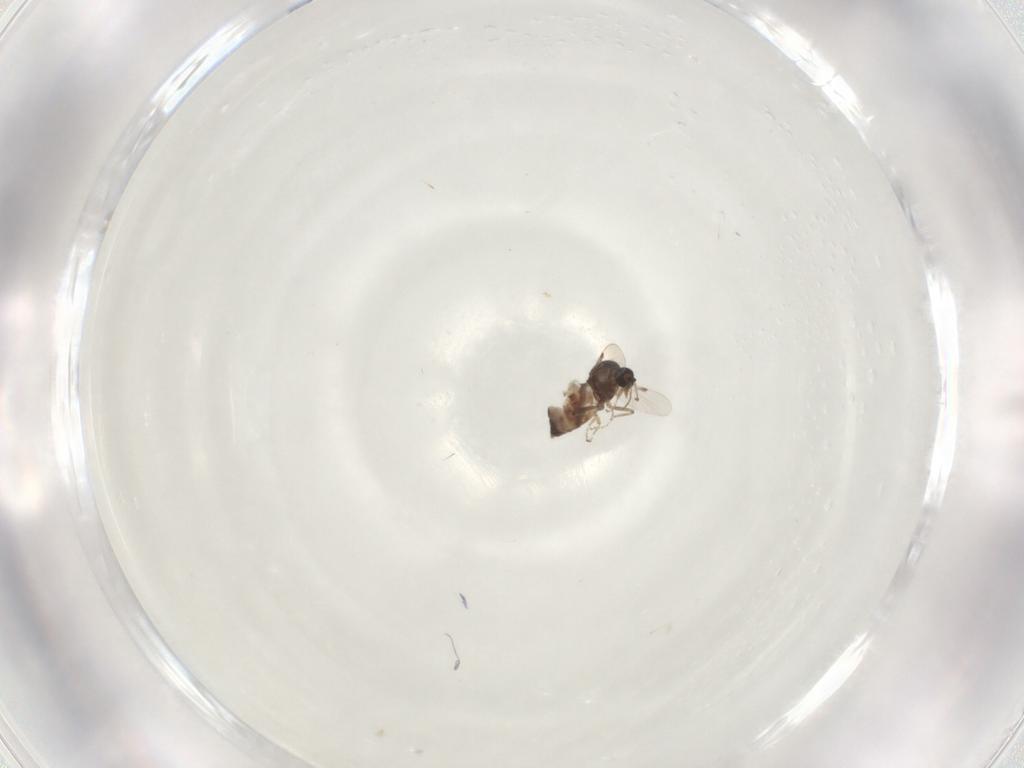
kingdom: Animalia
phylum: Arthropoda
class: Insecta
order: Diptera
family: Ceratopogonidae
